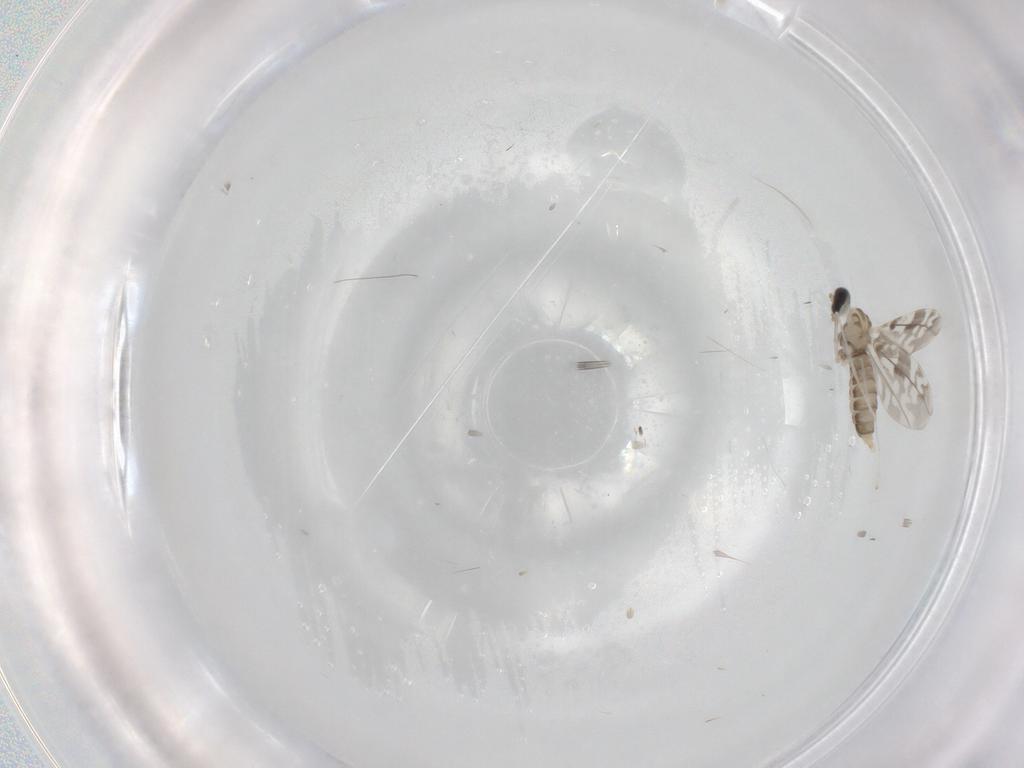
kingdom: Animalia
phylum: Arthropoda
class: Insecta
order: Diptera
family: Cecidomyiidae
